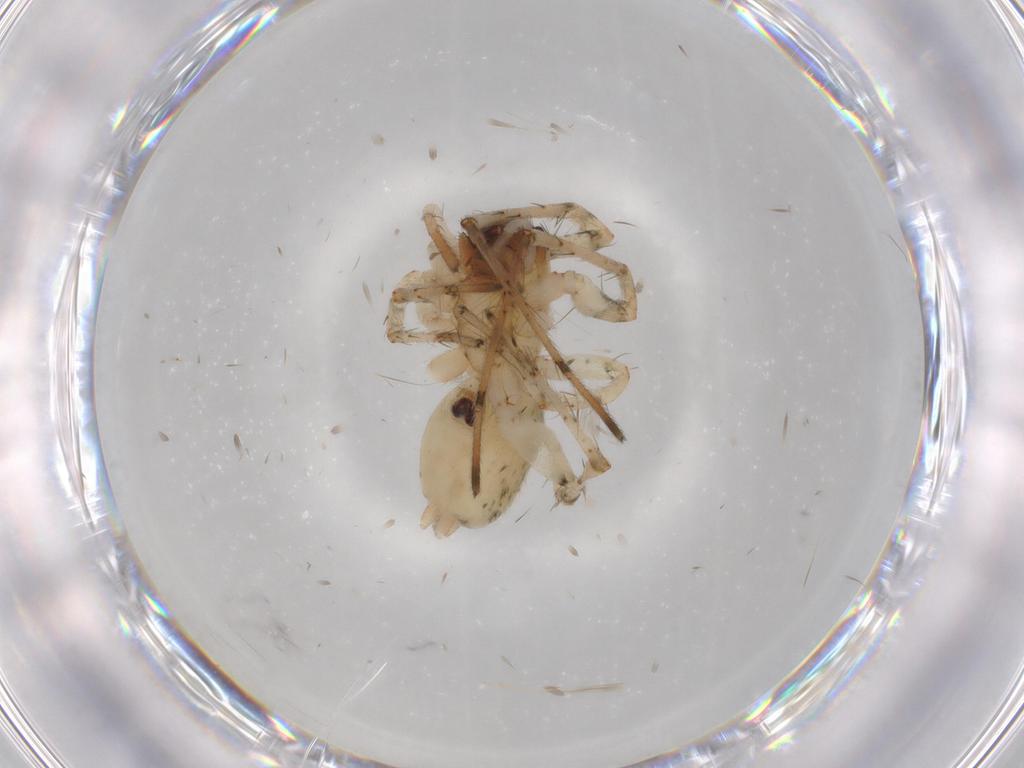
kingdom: Animalia
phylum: Arthropoda
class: Arachnida
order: Araneae
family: Anyphaenidae
